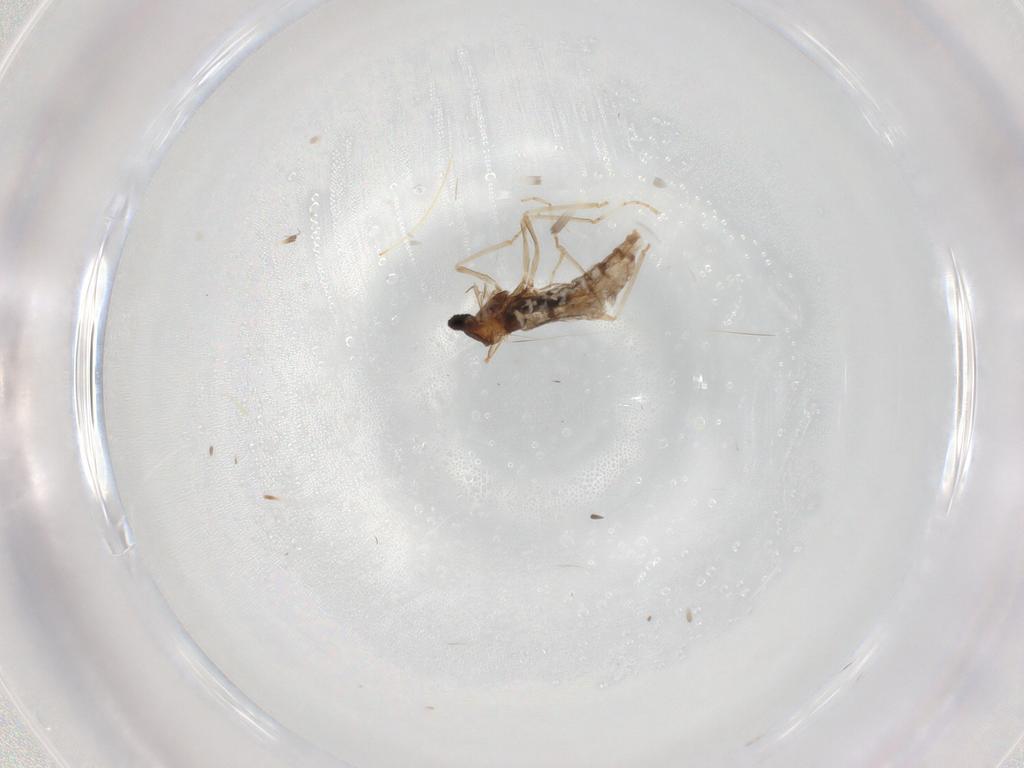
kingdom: Animalia
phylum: Arthropoda
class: Insecta
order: Diptera
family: Cecidomyiidae
